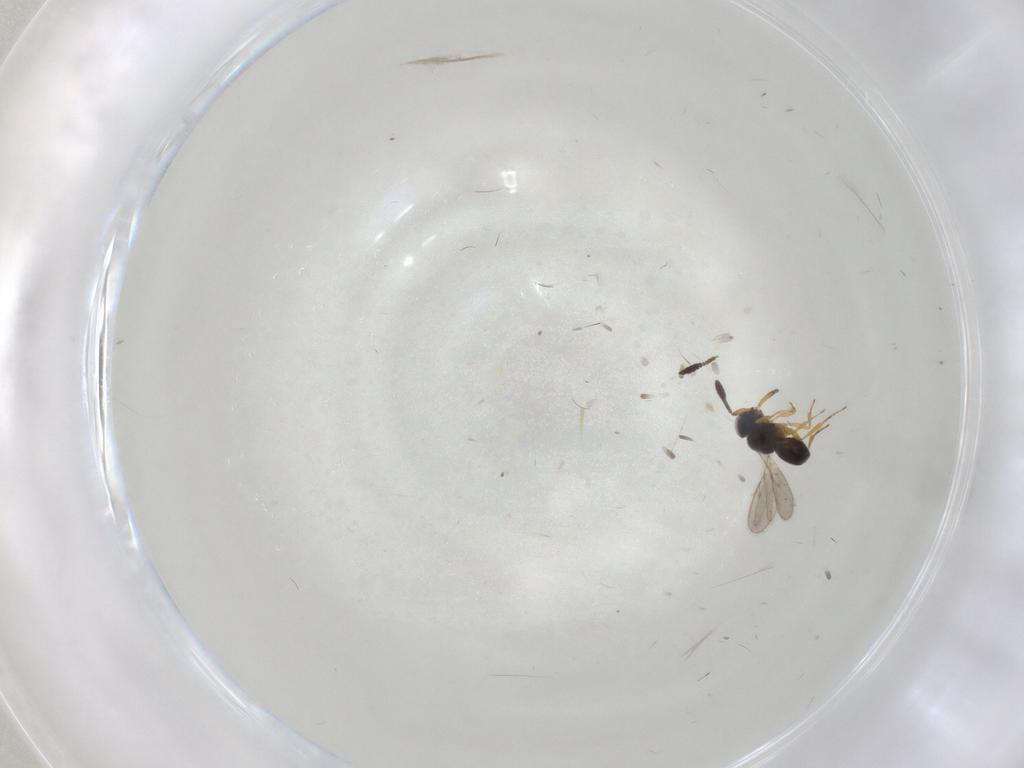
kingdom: Animalia
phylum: Arthropoda
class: Insecta
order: Hymenoptera
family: Scelionidae
